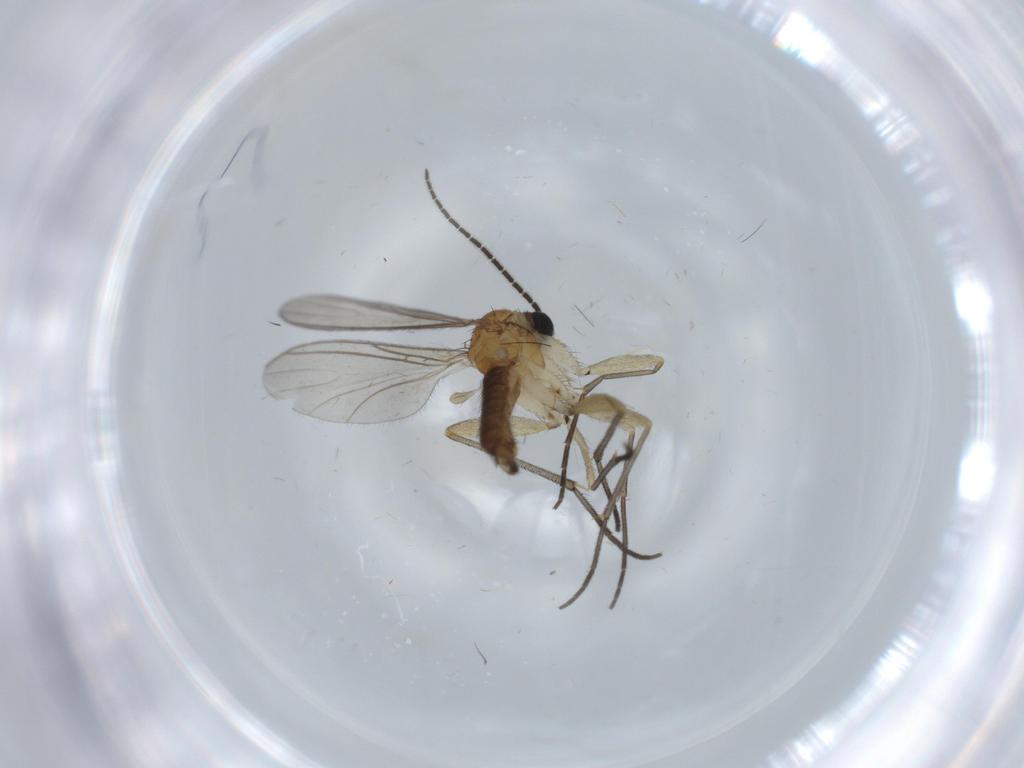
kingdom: Animalia
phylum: Arthropoda
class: Insecta
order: Diptera
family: Sciaridae
